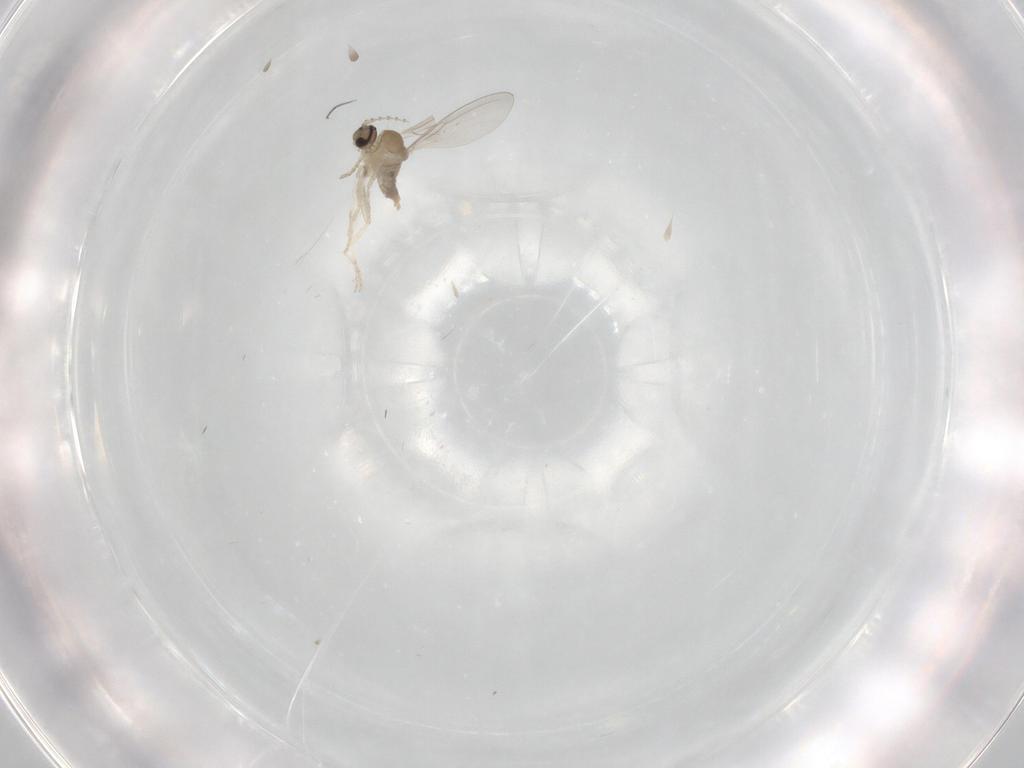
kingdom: Animalia
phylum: Arthropoda
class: Insecta
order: Diptera
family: Cecidomyiidae
